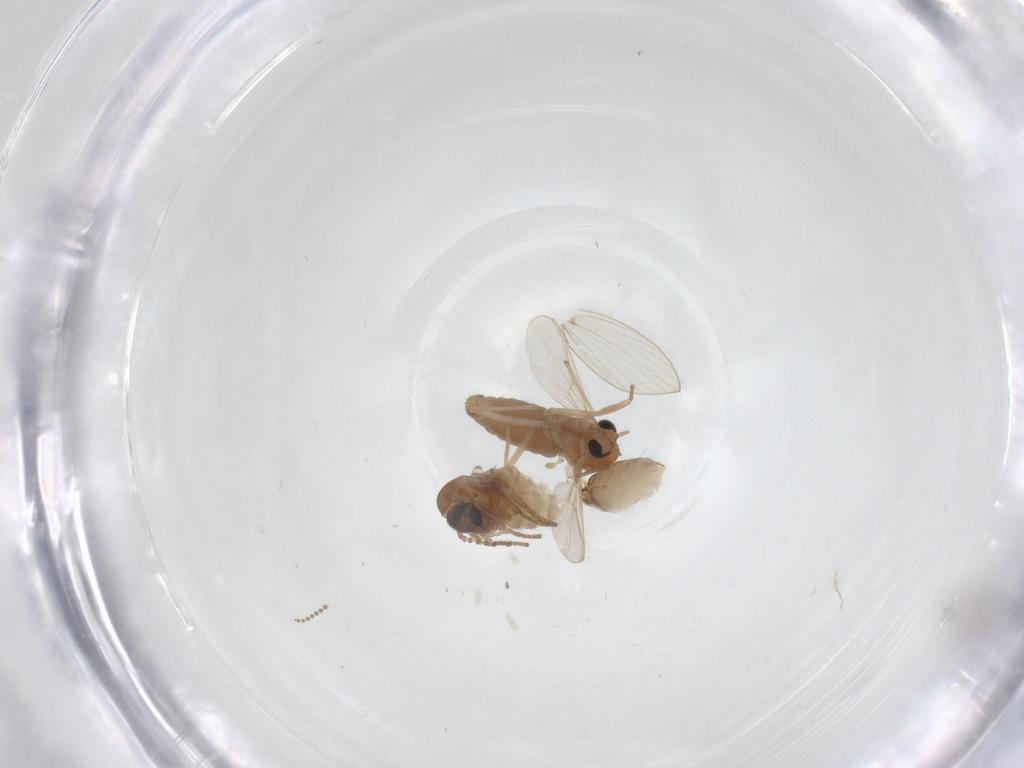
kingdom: Animalia
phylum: Arthropoda
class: Insecta
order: Diptera
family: Psychodidae
